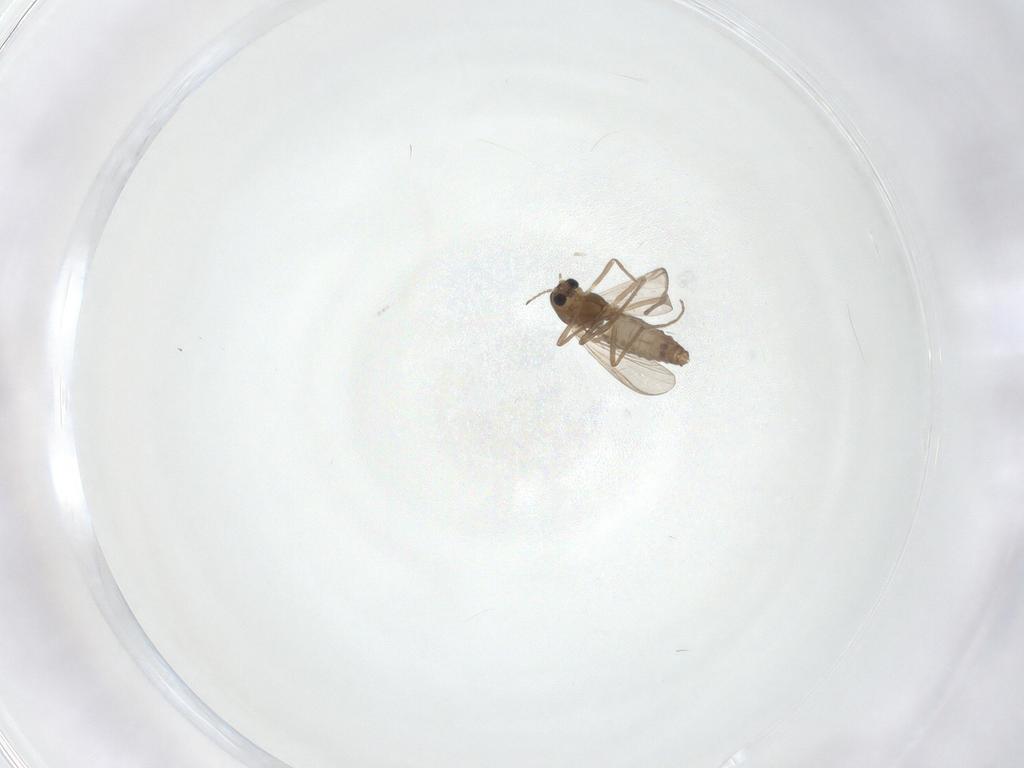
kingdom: Animalia
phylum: Arthropoda
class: Insecta
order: Diptera
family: Chironomidae
